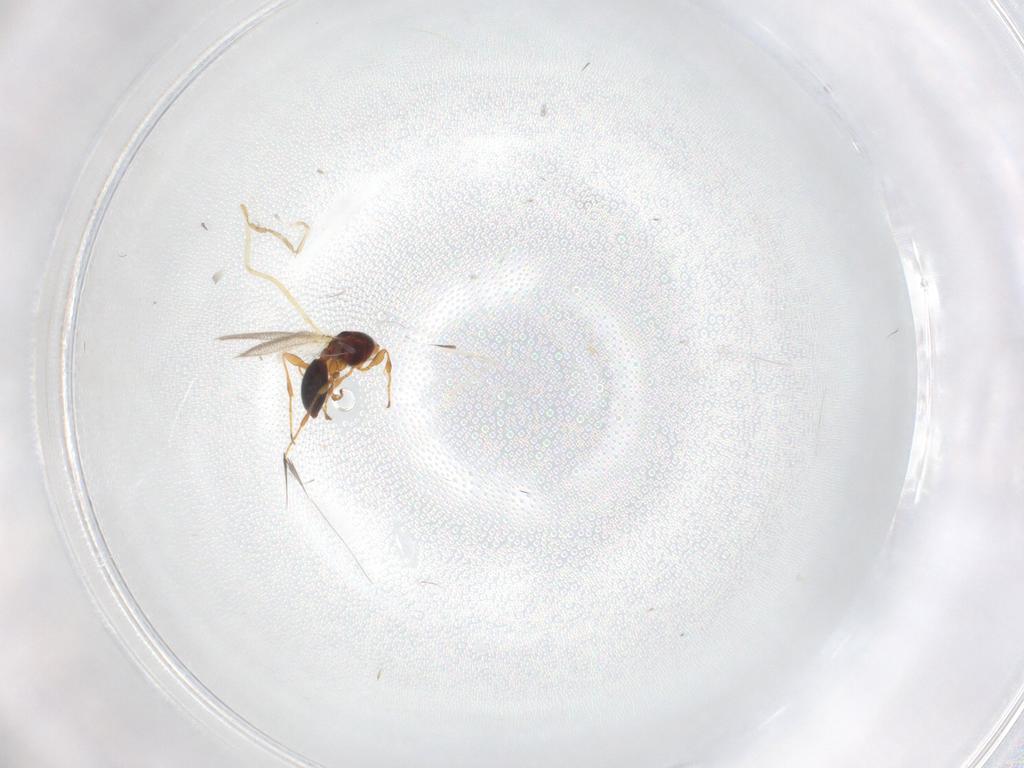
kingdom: Animalia
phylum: Arthropoda
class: Insecta
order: Hymenoptera
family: Diapriidae
